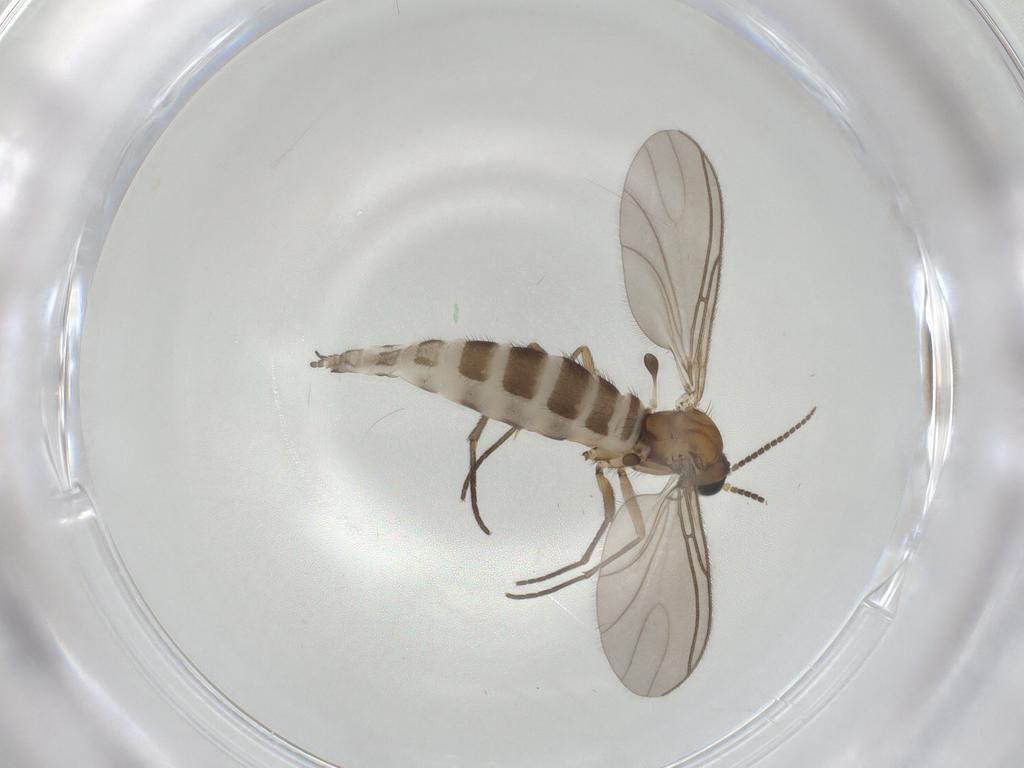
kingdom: Animalia
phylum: Arthropoda
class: Insecta
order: Diptera
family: Sciaridae
